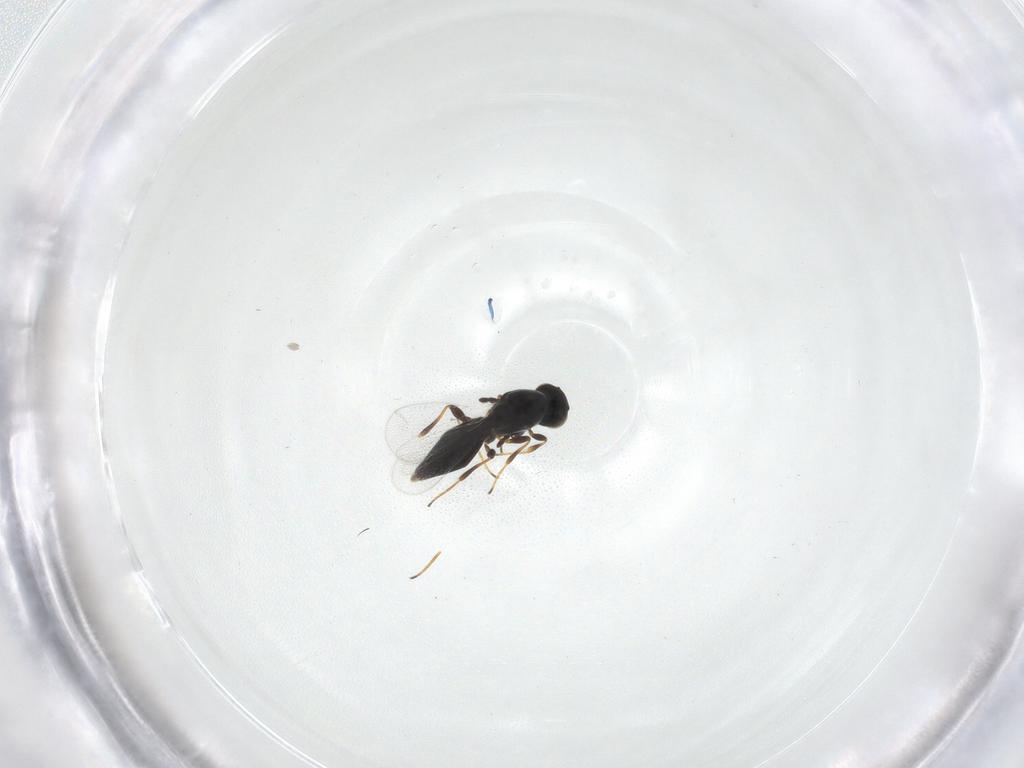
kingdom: Animalia
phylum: Arthropoda
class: Insecta
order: Hymenoptera
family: Platygastridae
